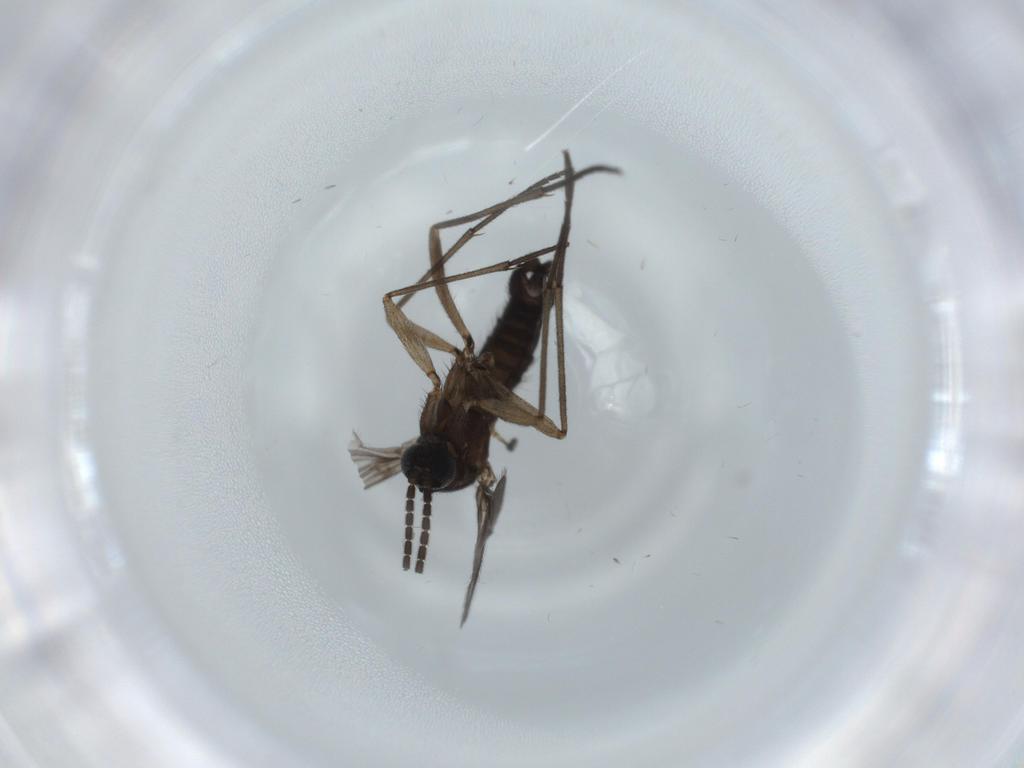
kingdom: Animalia
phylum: Arthropoda
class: Insecta
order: Diptera
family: Sciaridae
